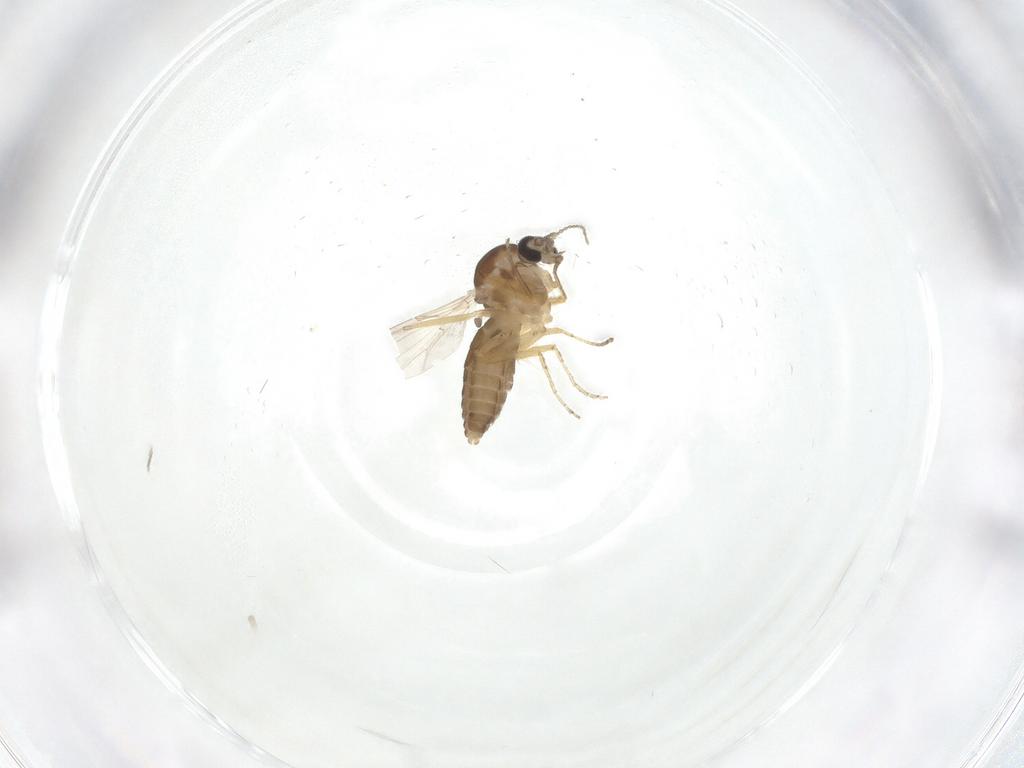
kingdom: Animalia
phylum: Arthropoda
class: Insecta
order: Diptera
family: Ceratopogonidae
